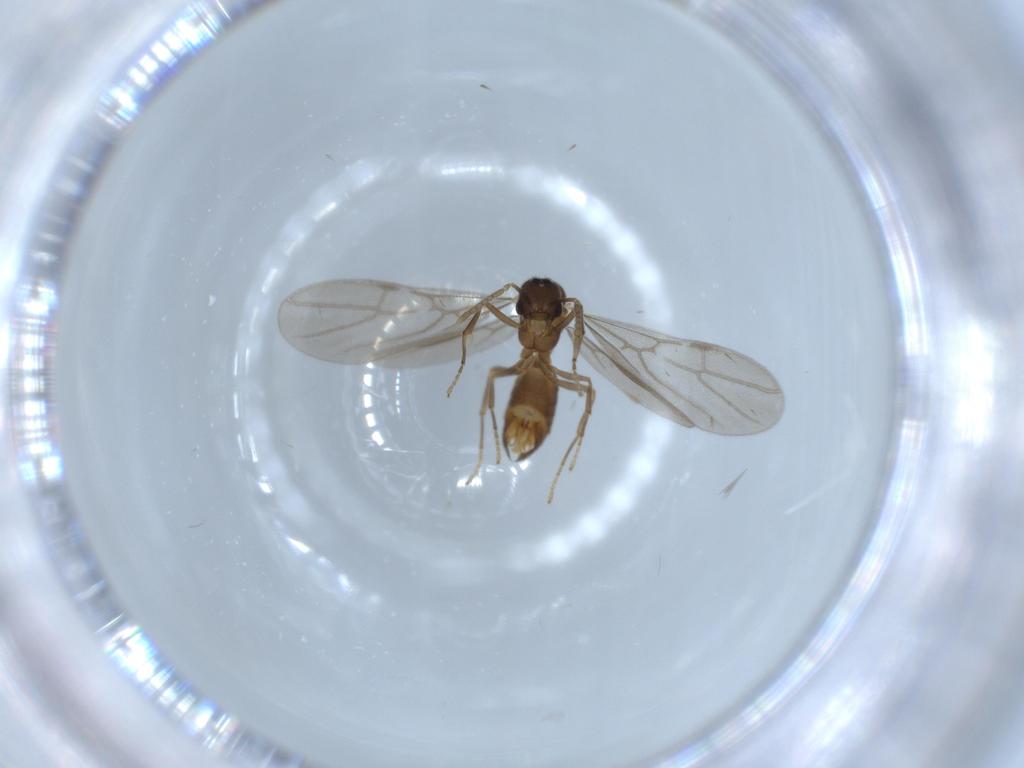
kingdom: Animalia
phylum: Arthropoda
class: Insecta
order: Hymenoptera
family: Formicidae
